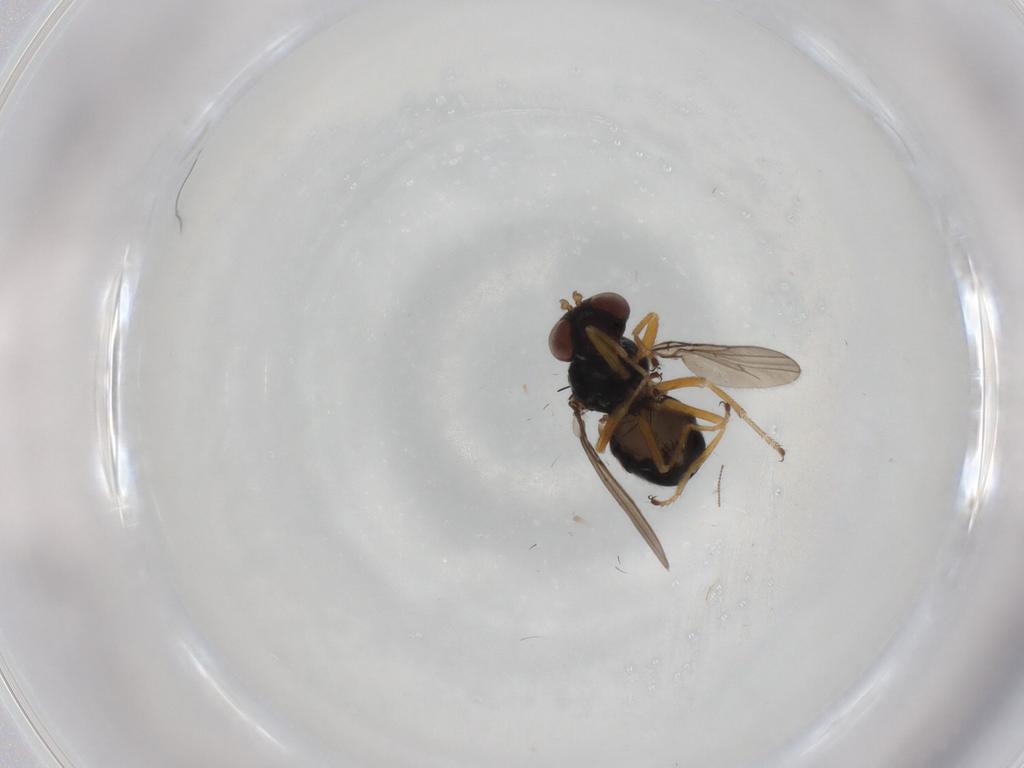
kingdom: Animalia
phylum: Arthropoda
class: Insecta
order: Diptera
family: Ephydridae
